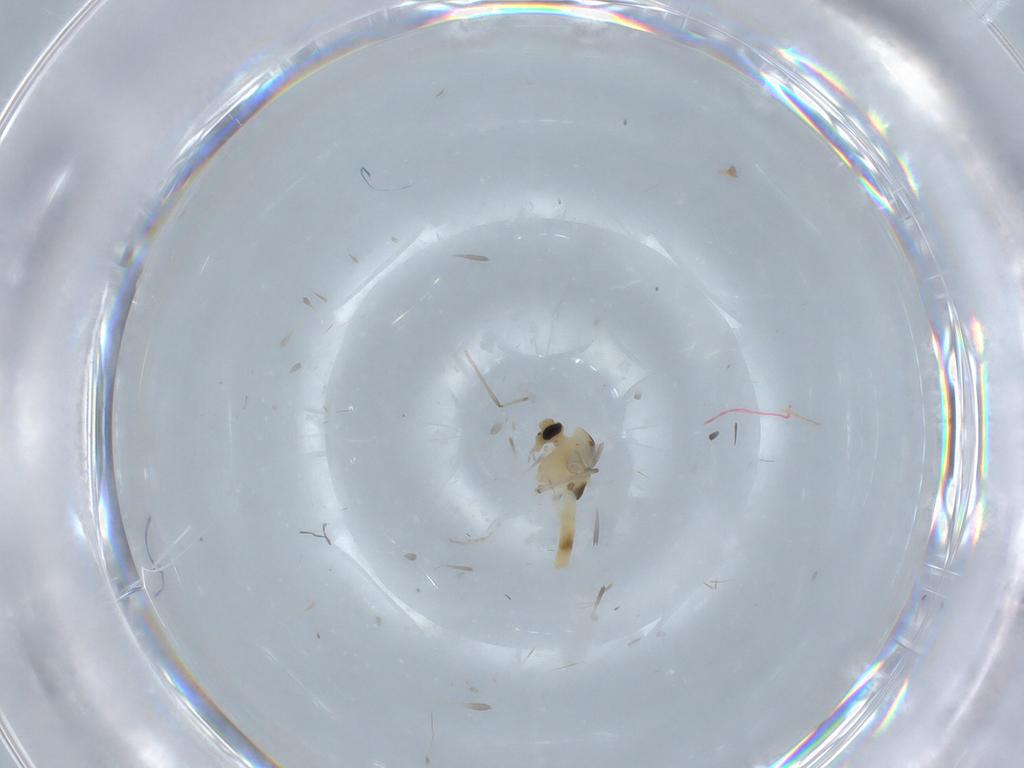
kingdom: Animalia
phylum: Arthropoda
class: Insecta
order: Diptera
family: Chironomidae
